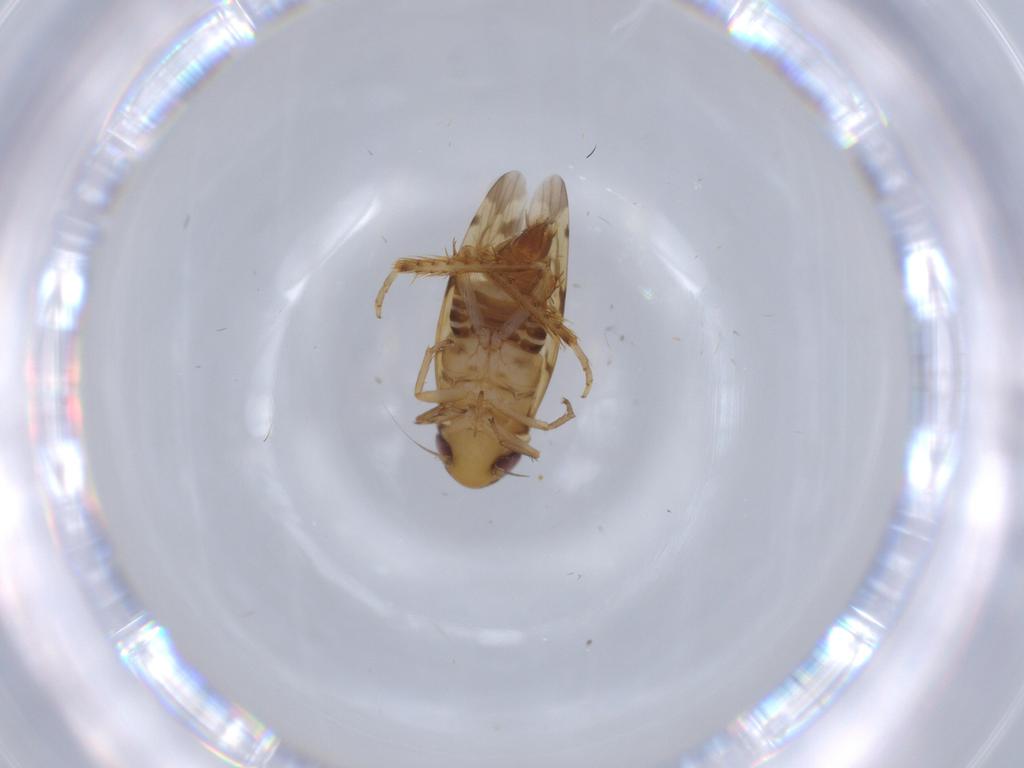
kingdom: Animalia
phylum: Arthropoda
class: Insecta
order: Hemiptera
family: Cicadellidae
